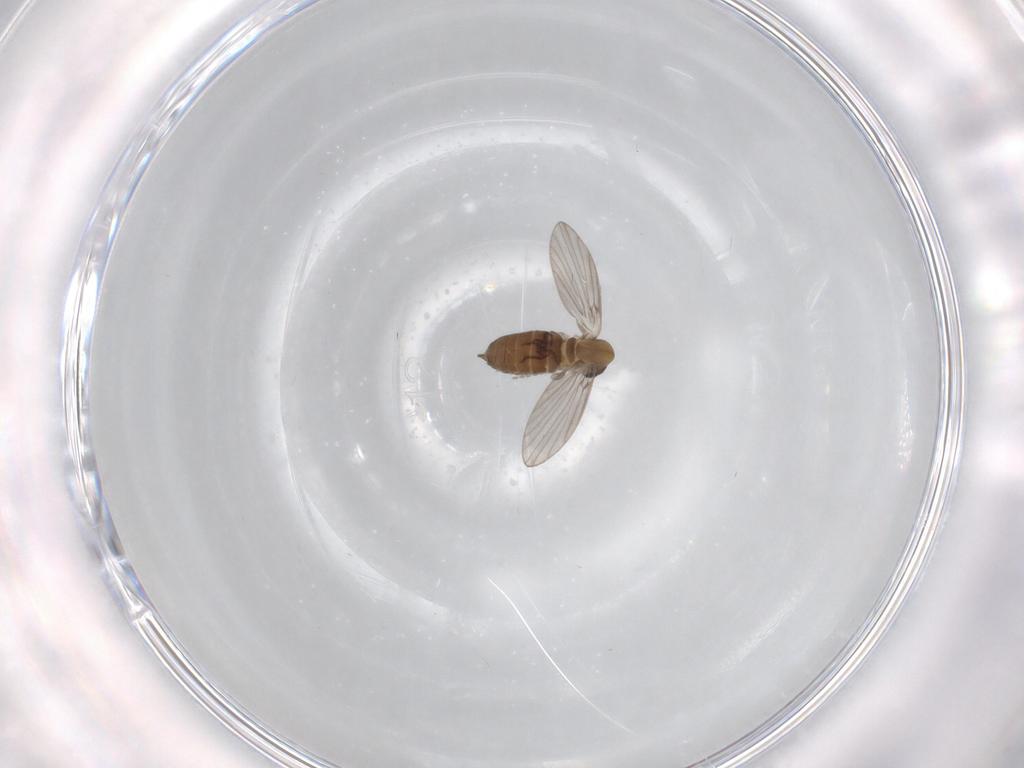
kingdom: Animalia
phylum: Arthropoda
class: Insecta
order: Diptera
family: Psychodidae
